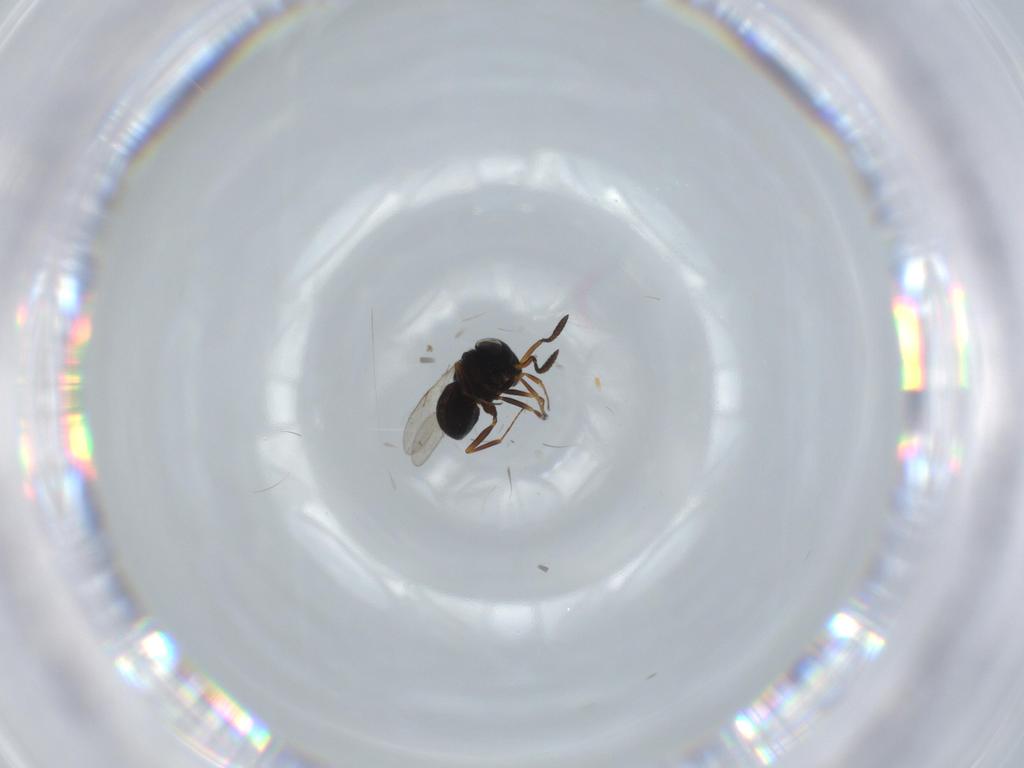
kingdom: Animalia
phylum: Arthropoda
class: Insecta
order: Hymenoptera
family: Scelionidae
